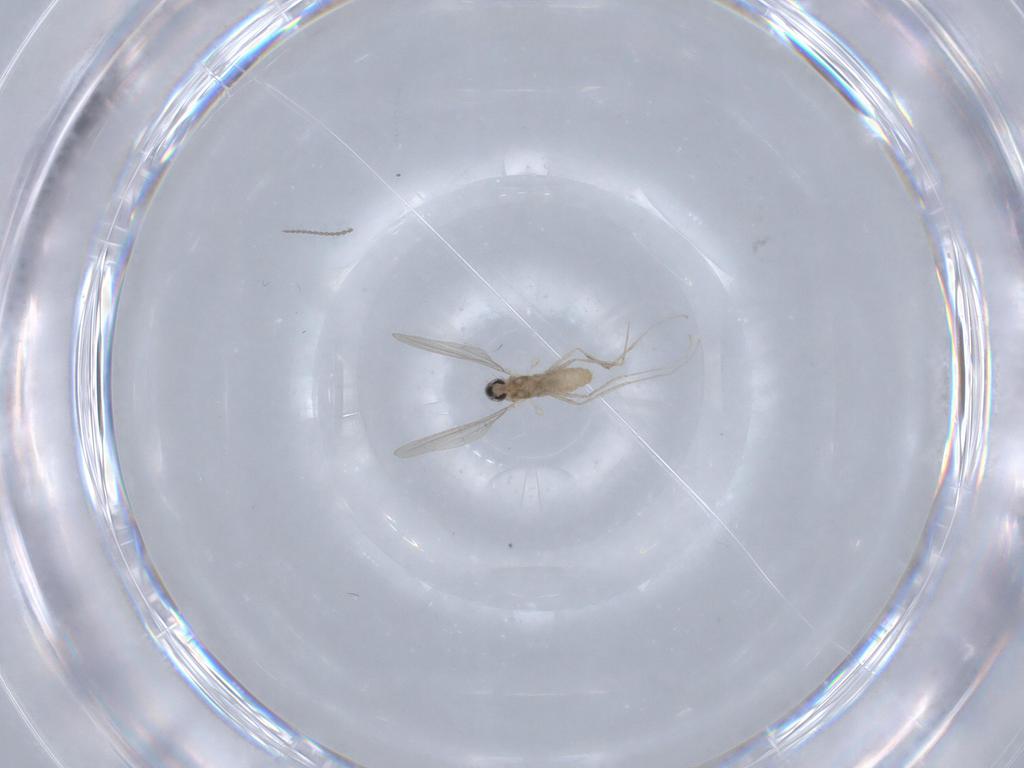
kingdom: Animalia
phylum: Arthropoda
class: Insecta
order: Diptera
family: Cecidomyiidae
